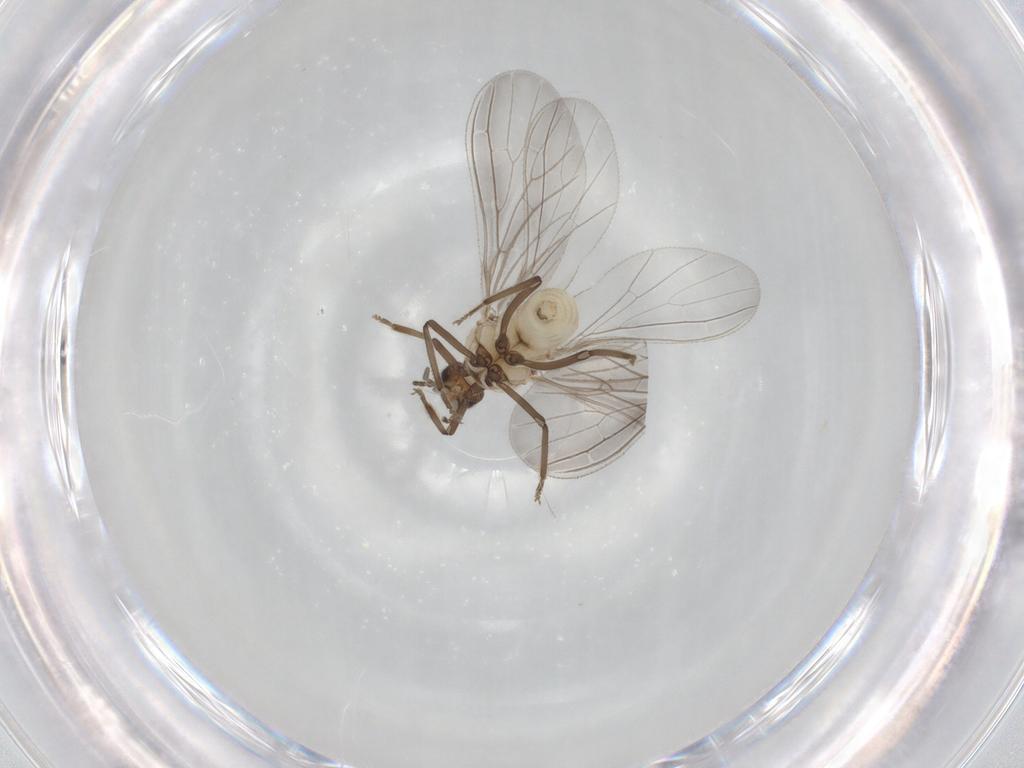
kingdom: Animalia
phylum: Arthropoda
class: Insecta
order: Neuroptera
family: Coniopterygidae
